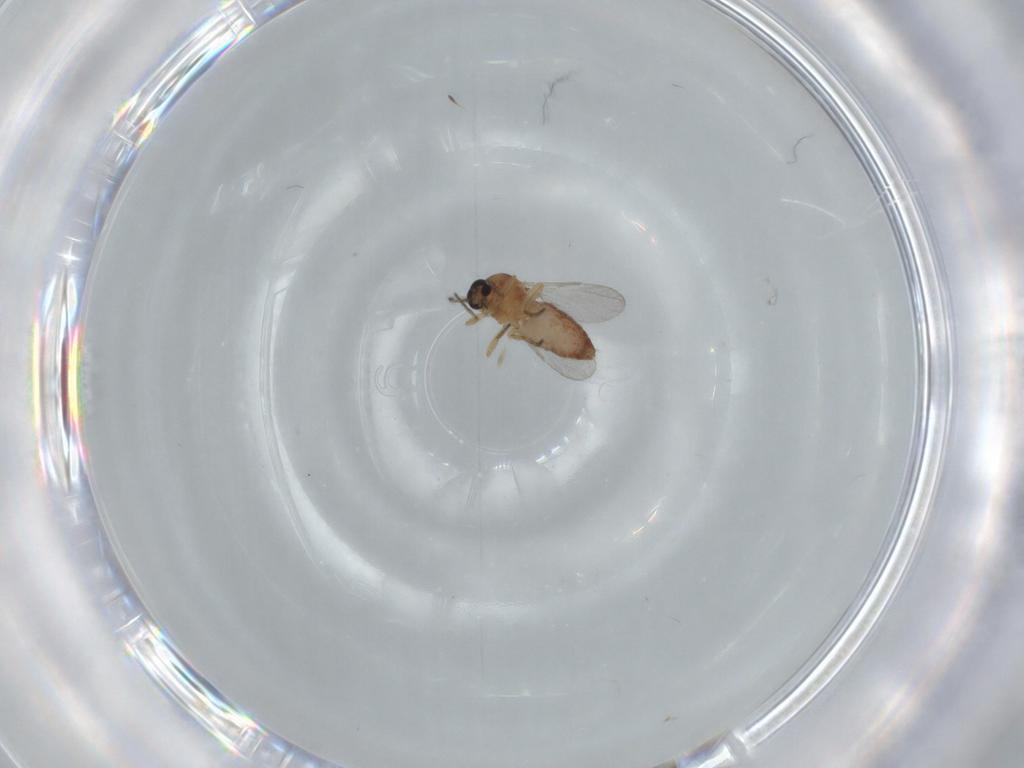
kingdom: Animalia
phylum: Arthropoda
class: Insecta
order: Diptera
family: Ceratopogonidae
